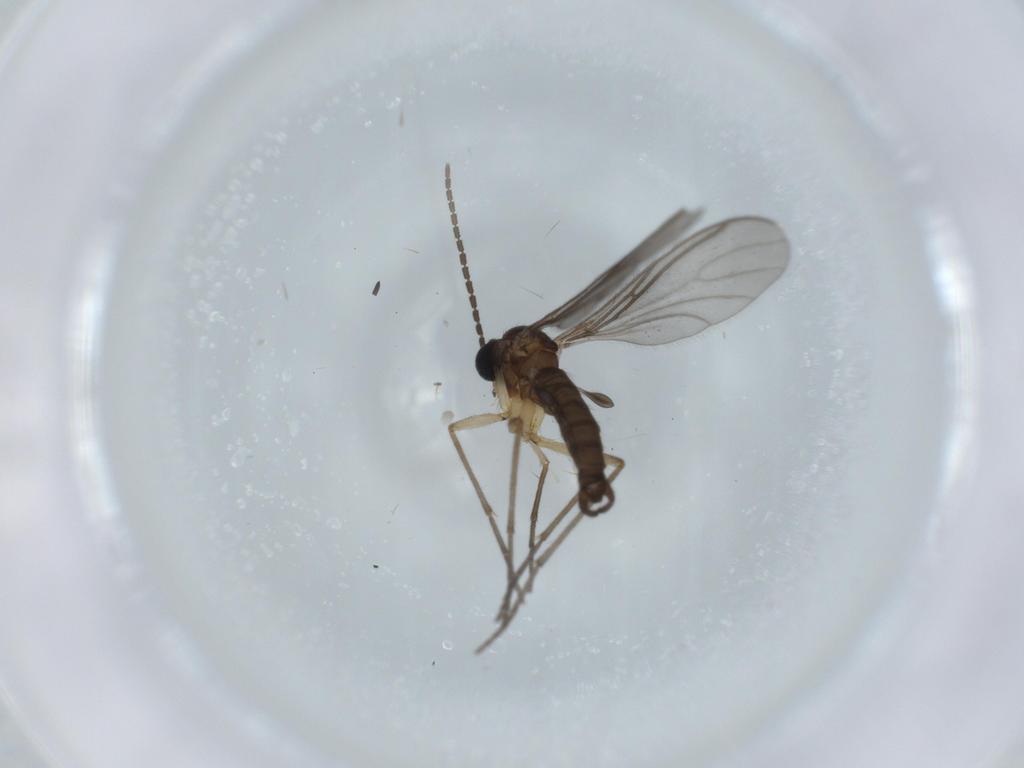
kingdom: Animalia
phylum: Arthropoda
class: Insecta
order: Diptera
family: Sciaridae
